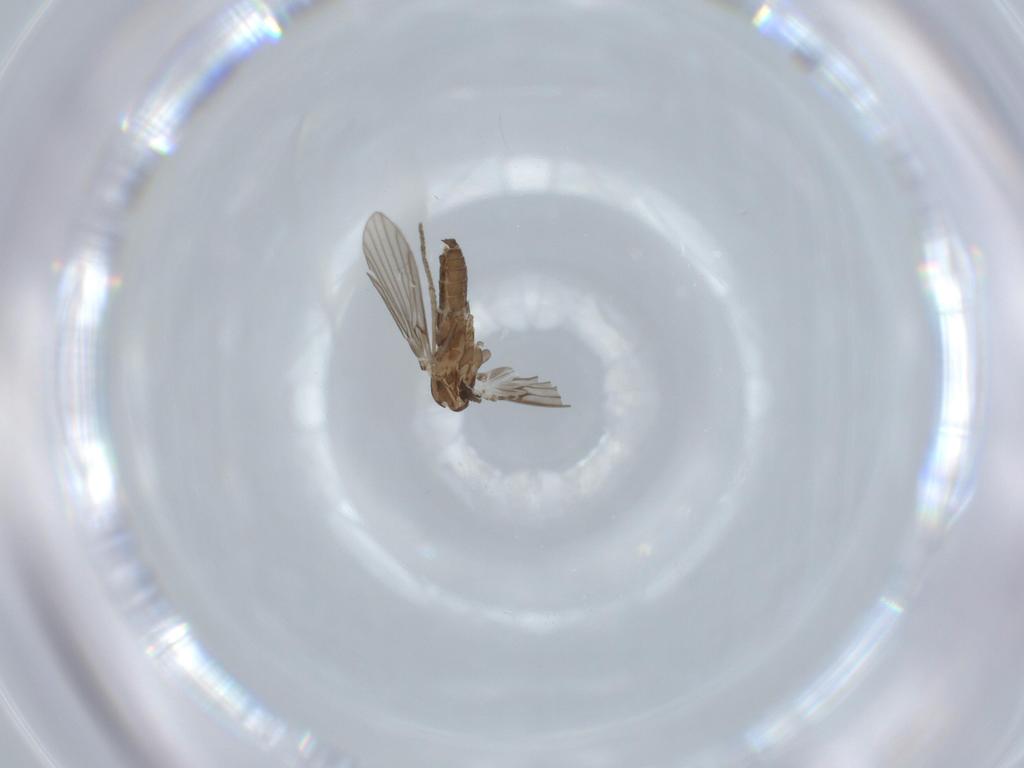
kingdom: Animalia
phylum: Arthropoda
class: Insecta
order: Diptera
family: Psychodidae
